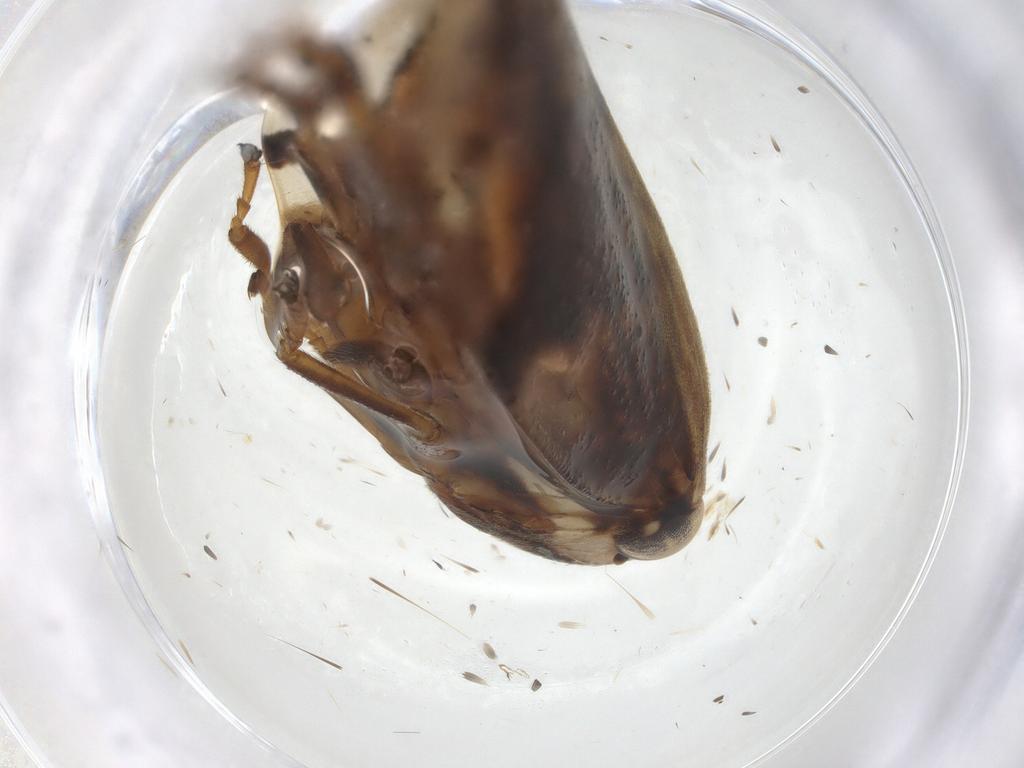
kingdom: Animalia
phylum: Arthropoda
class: Insecta
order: Hemiptera
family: Aphrophoridae
